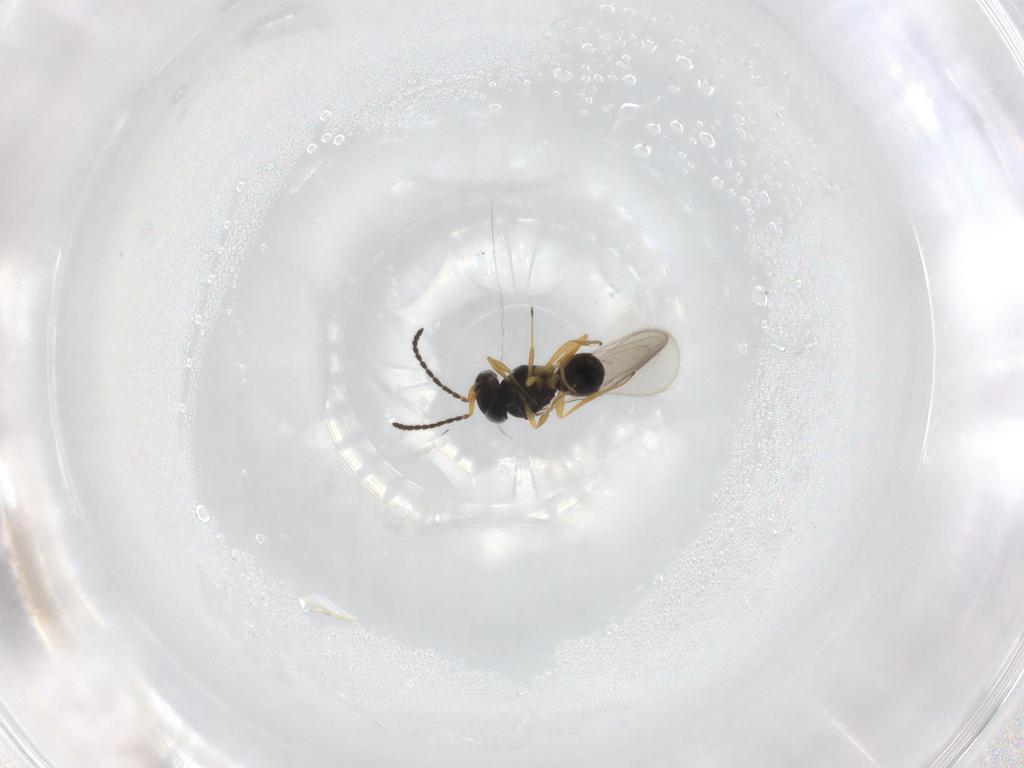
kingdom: Animalia
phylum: Arthropoda
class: Insecta
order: Hymenoptera
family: Scelionidae
